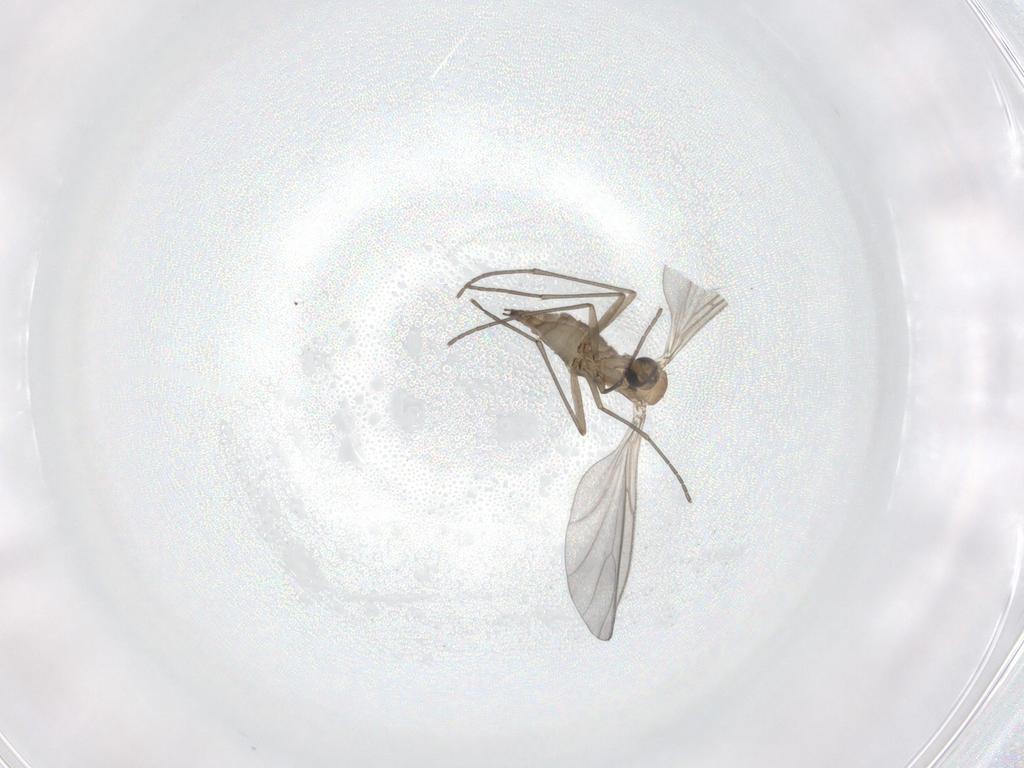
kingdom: Animalia
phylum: Arthropoda
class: Insecta
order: Diptera
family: Sciaridae
